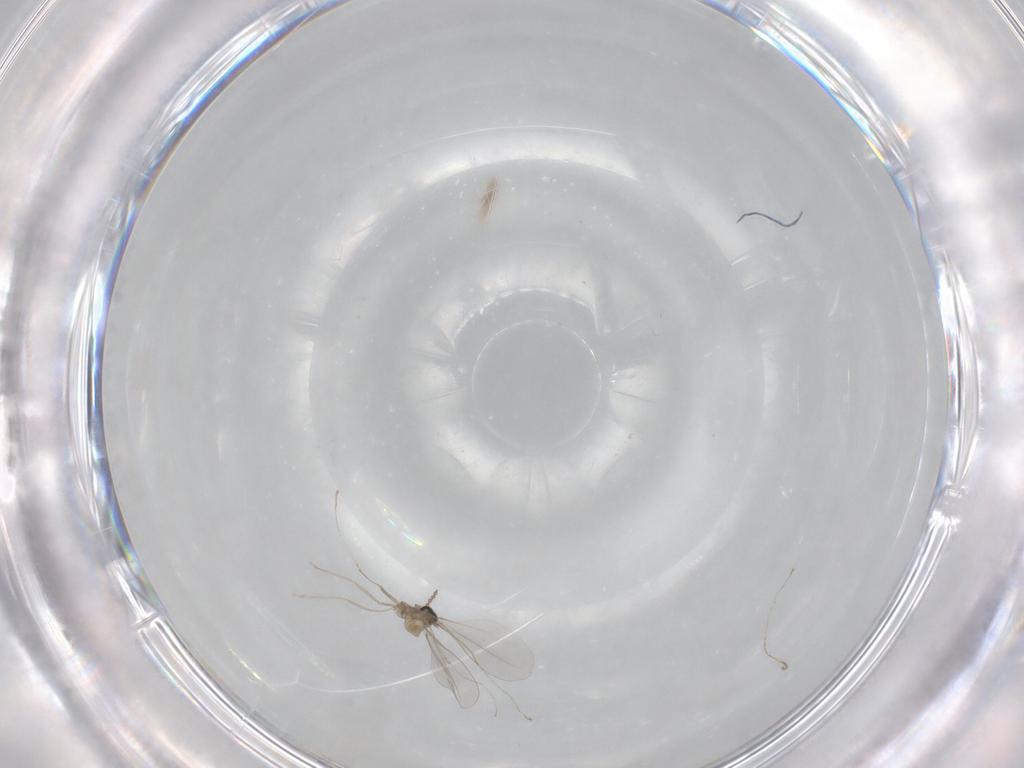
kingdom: Animalia
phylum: Arthropoda
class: Insecta
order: Diptera
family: Cecidomyiidae
